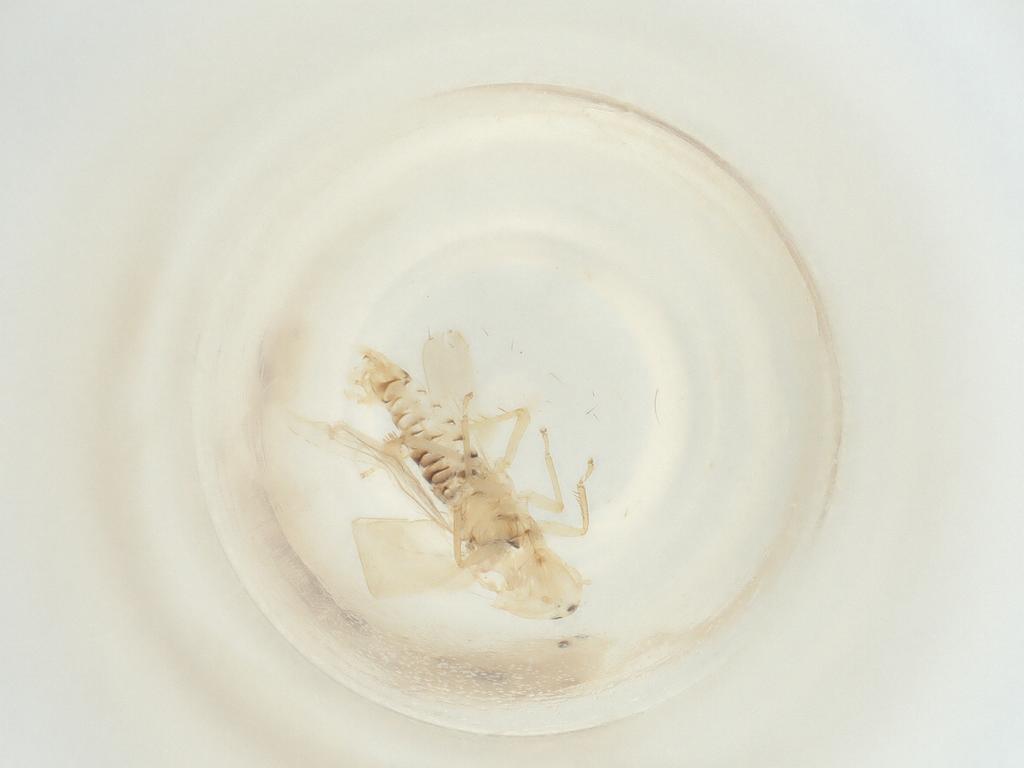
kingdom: Animalia
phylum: Arthropoda
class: Insecta
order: Hemiptera
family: Cicadellidae
